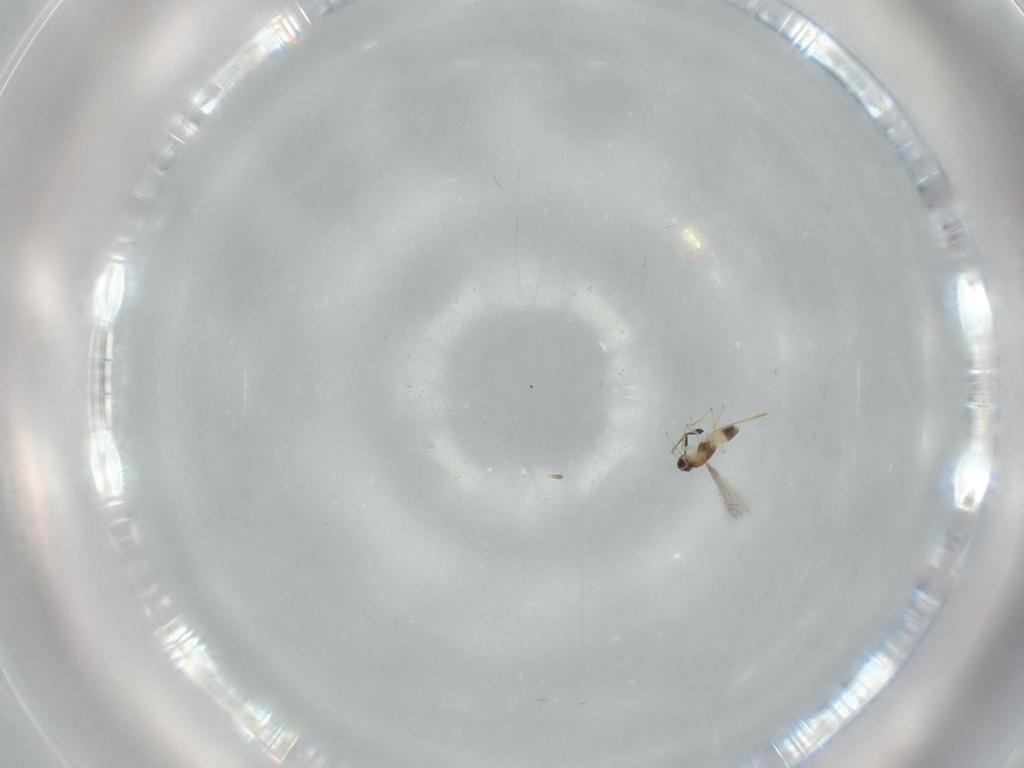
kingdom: Animalia
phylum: Arthropoda
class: Insecta
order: Hymenoptera
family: Mymaridae
